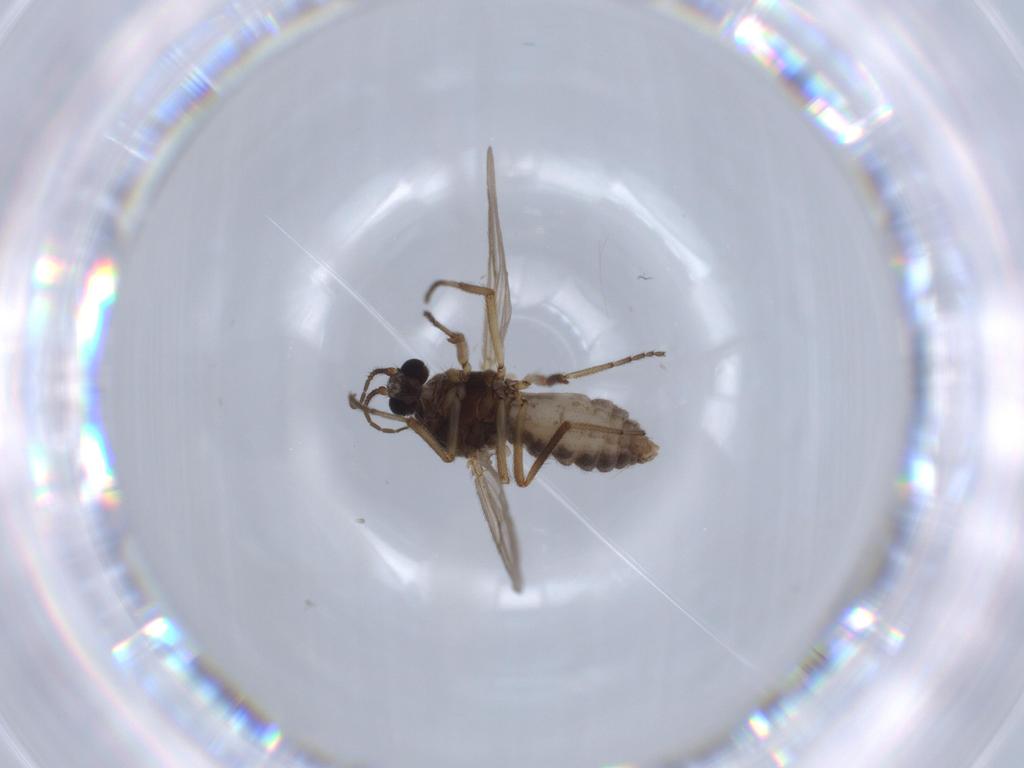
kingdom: Animalia
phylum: Arthropoda
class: Insecta
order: Diptera
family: Ceratopogonidae
